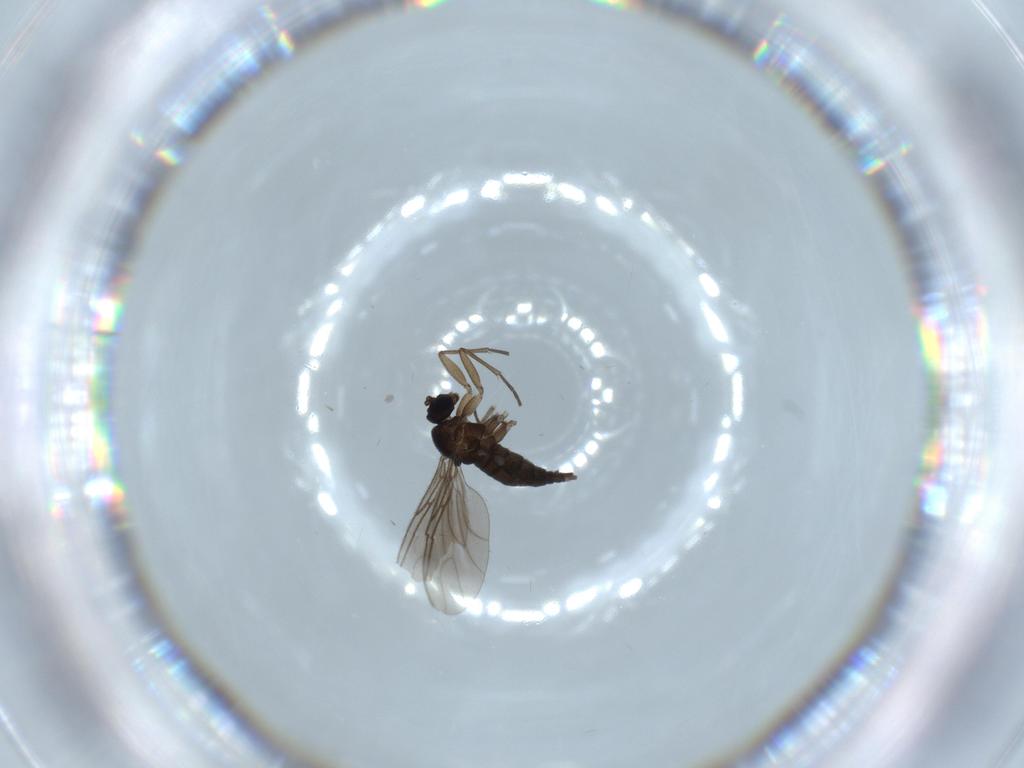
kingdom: Animalia
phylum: Arthropoda
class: Insecta
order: Diptera
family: Sciaridae
